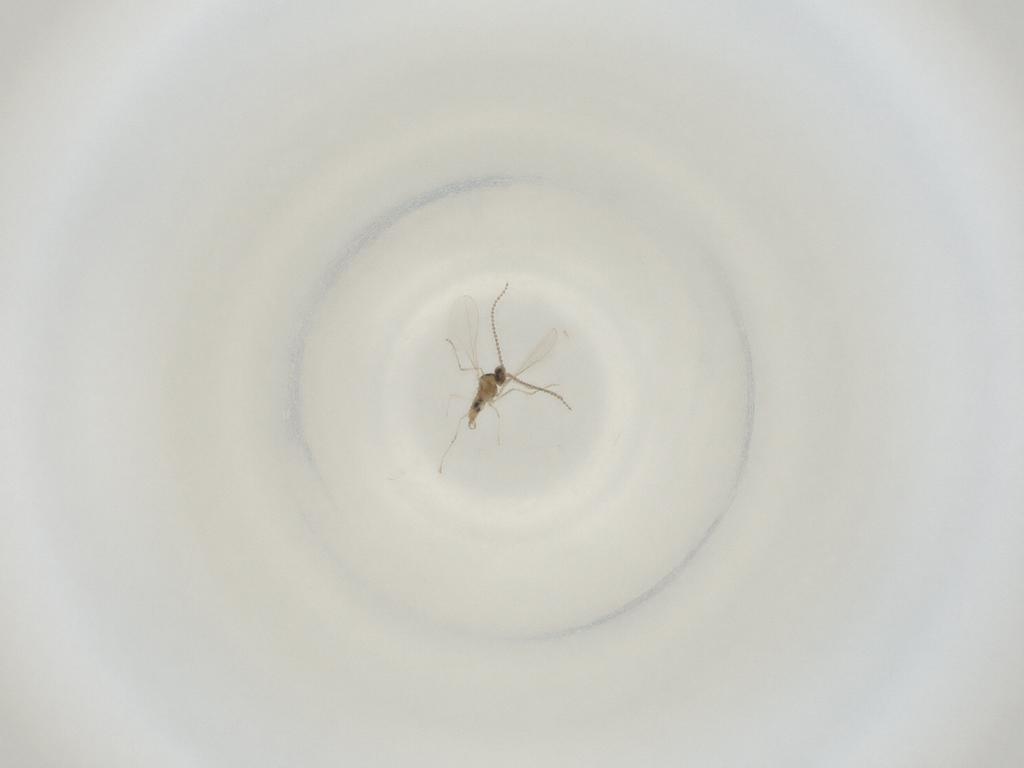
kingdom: Animalia
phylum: Arthropoda
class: Insecta
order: Diptera
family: Cecidomyiidae
